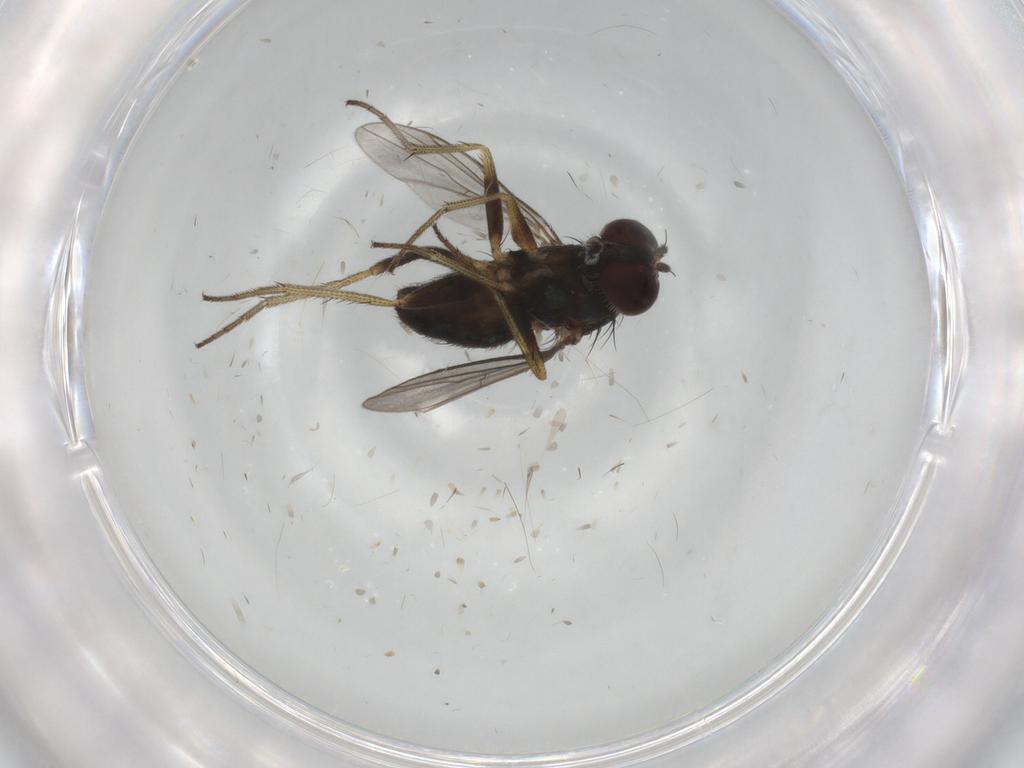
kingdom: Animalia
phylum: Arthropoda
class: Insecta
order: Diptera
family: Dolichopodidae
